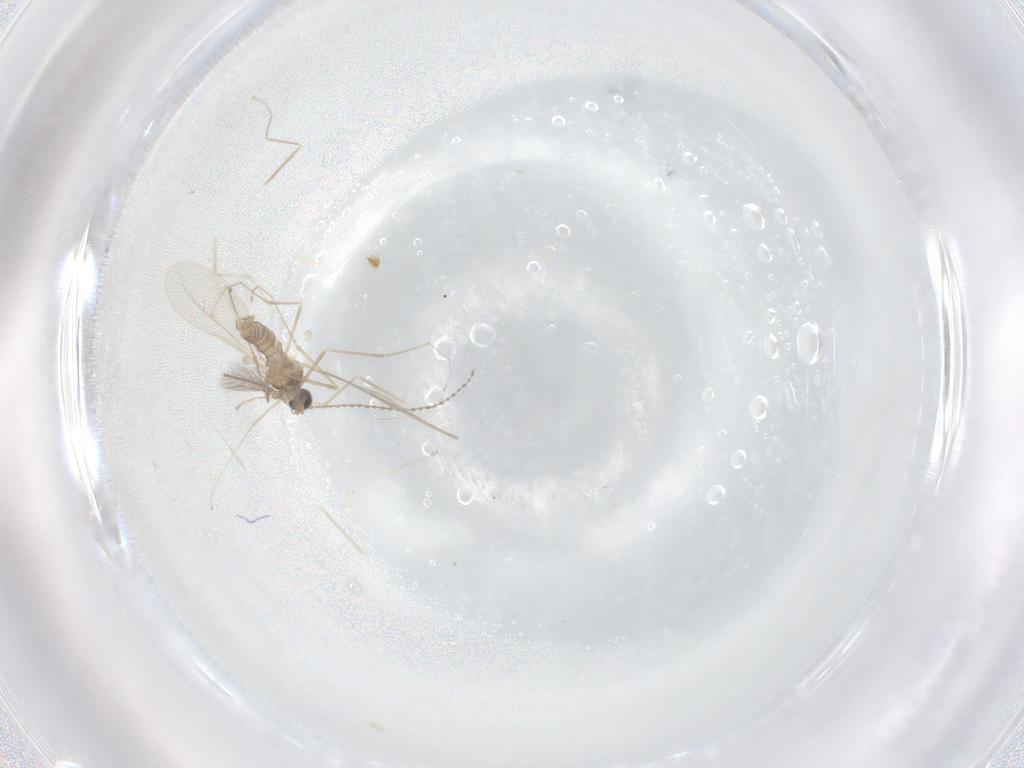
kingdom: Animalia
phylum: Arthropoda
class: Insecta
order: Diptera
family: Cecidomyiidae
